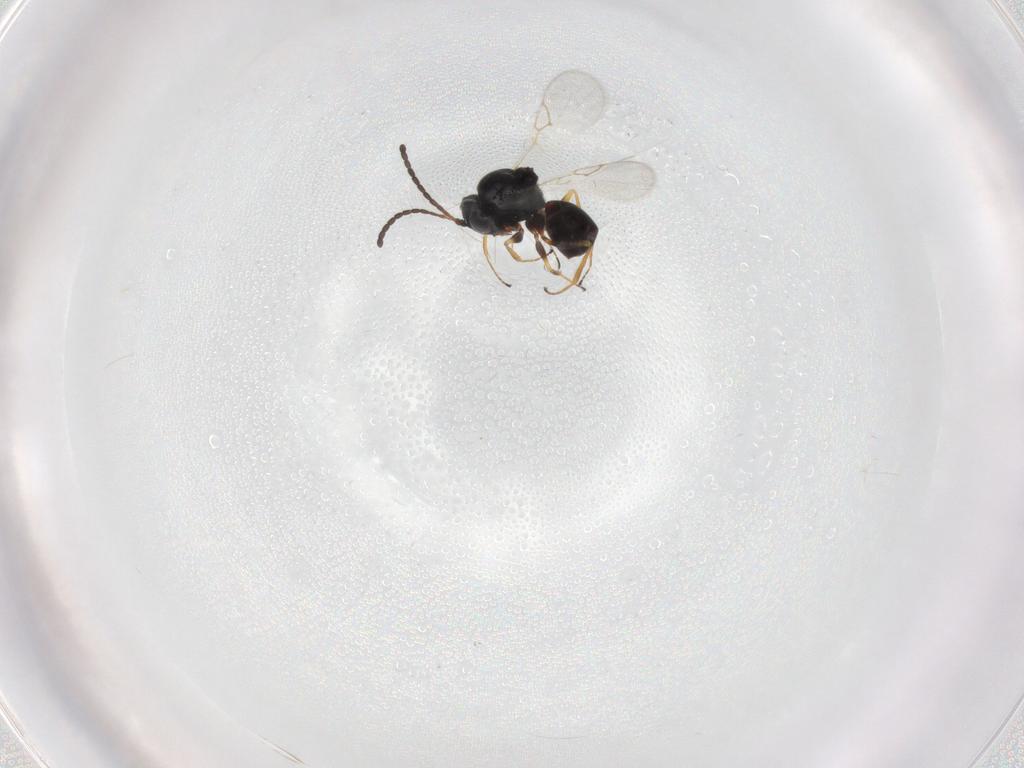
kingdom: Animalia
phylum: Arthropoda
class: Insecta
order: Hymenoptera
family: Figitidae
